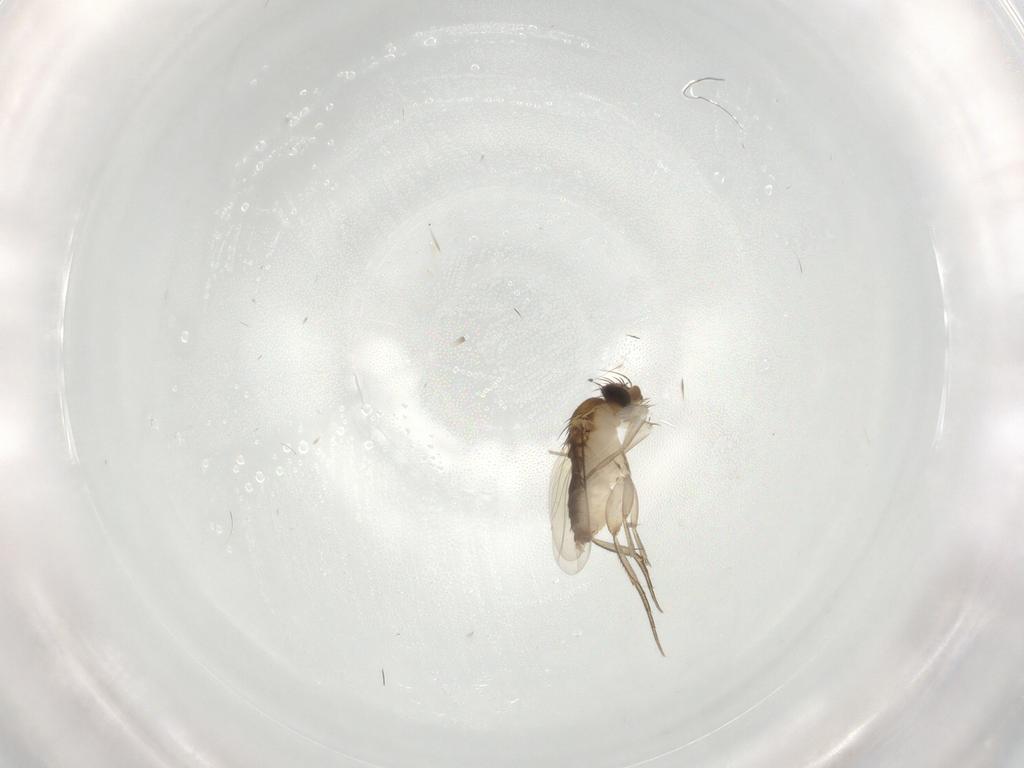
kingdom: Animalia
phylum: Arthropoda
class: Insecta
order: Diptera
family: Phoridae
